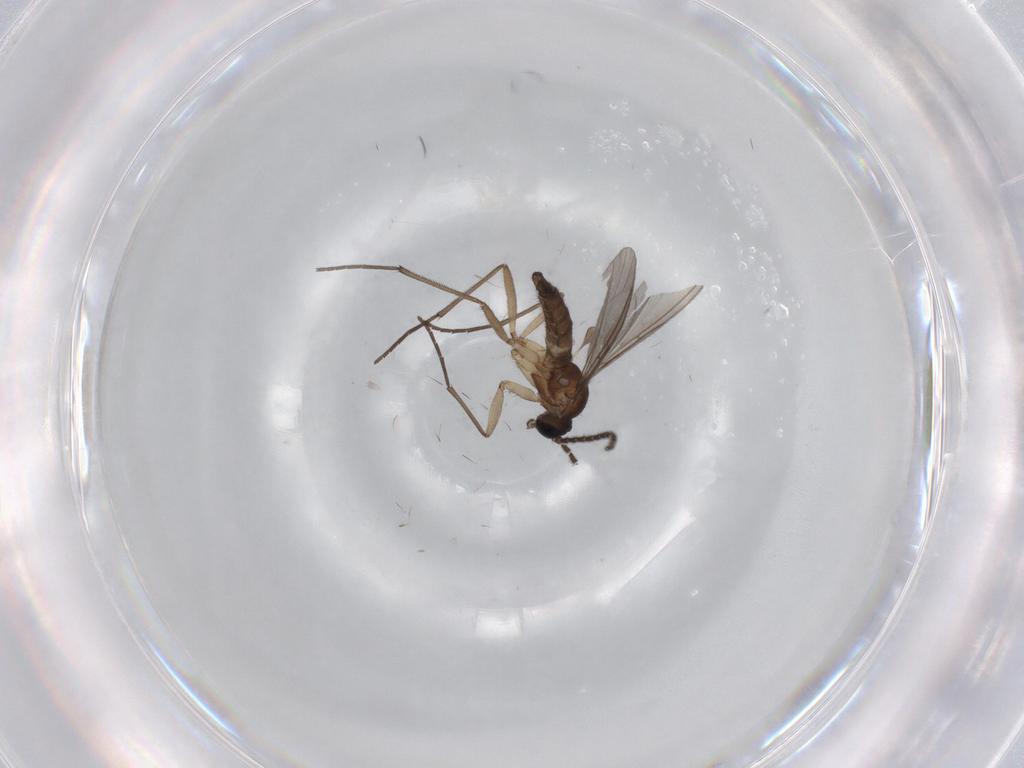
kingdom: Animalia
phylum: Arthropoda
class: Insecta
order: Diptera
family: Sciaridae
